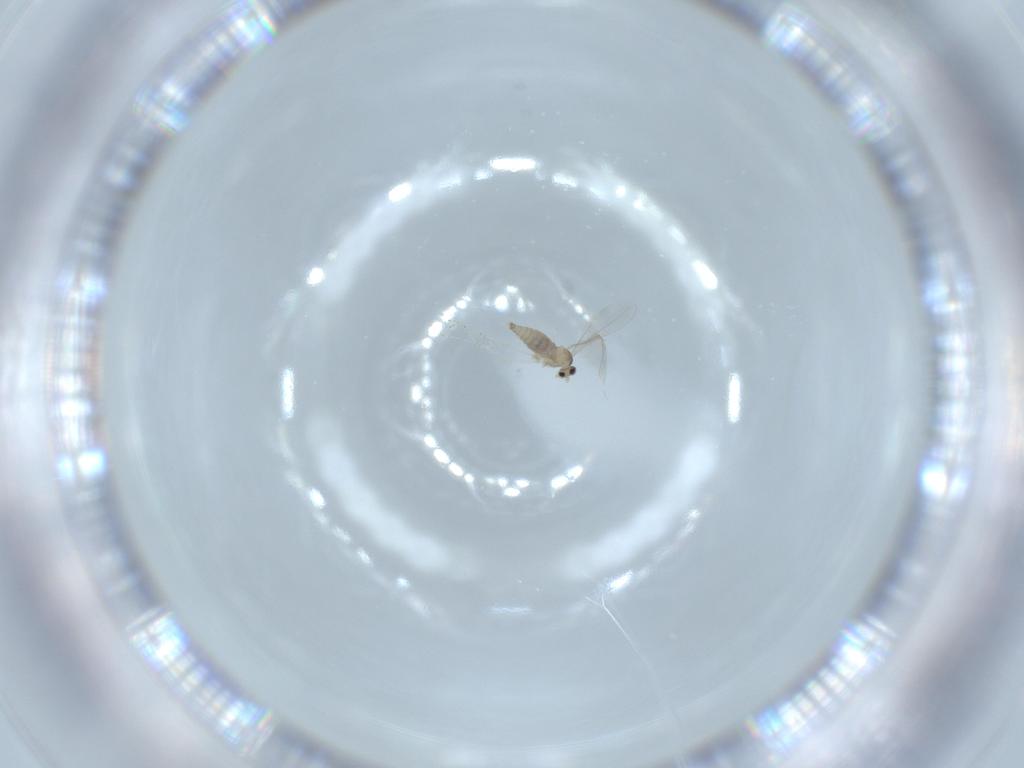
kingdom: Animalia
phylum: Arthropoda
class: Insecta
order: Diptera
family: Cecidomyiidae
